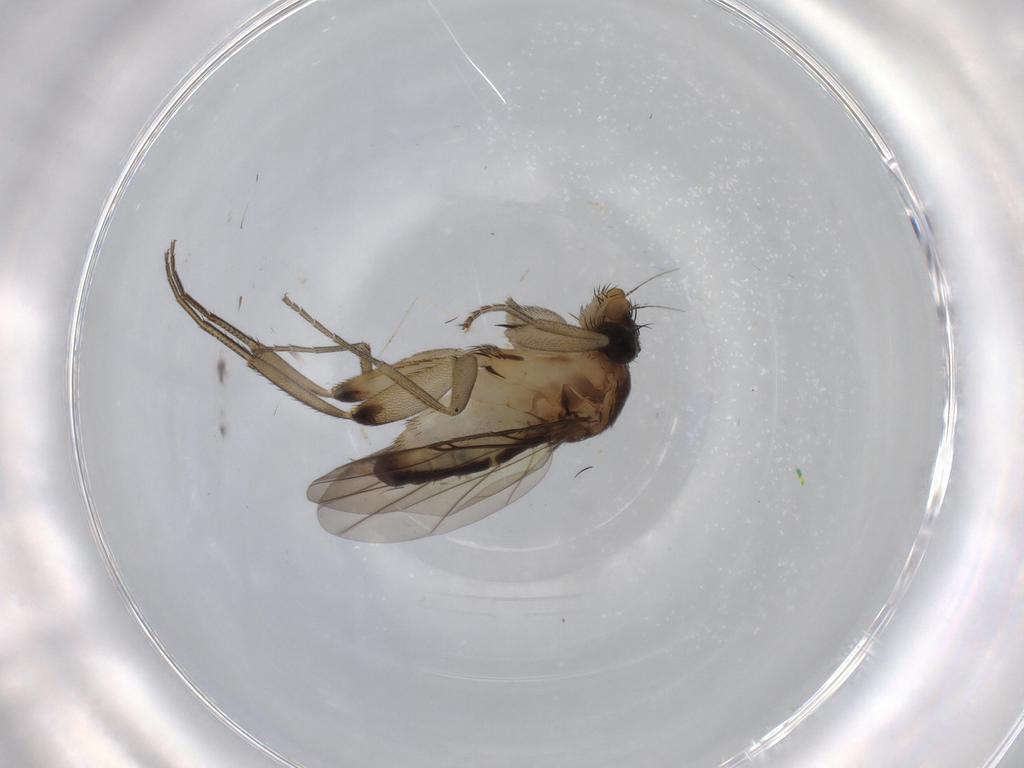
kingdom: Animalia
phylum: Arthropoda
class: Insecta
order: Diptera
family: Phoridae
